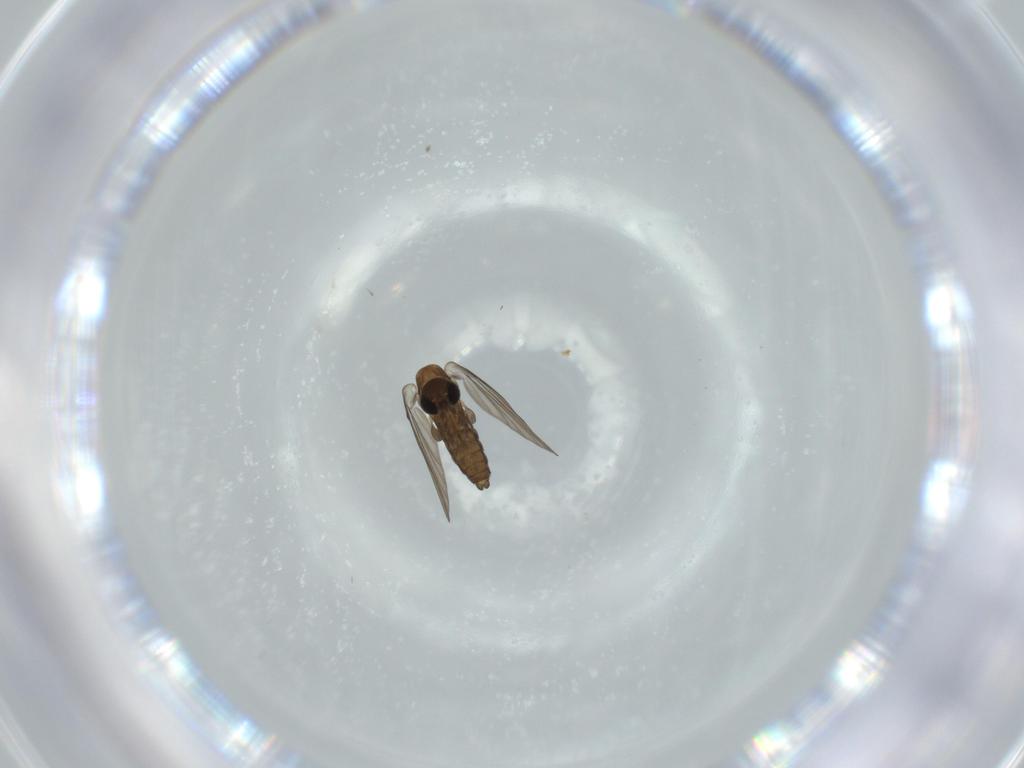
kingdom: Animalia
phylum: Arthropoda
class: Insecta
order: Diptera
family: Psychodidae
